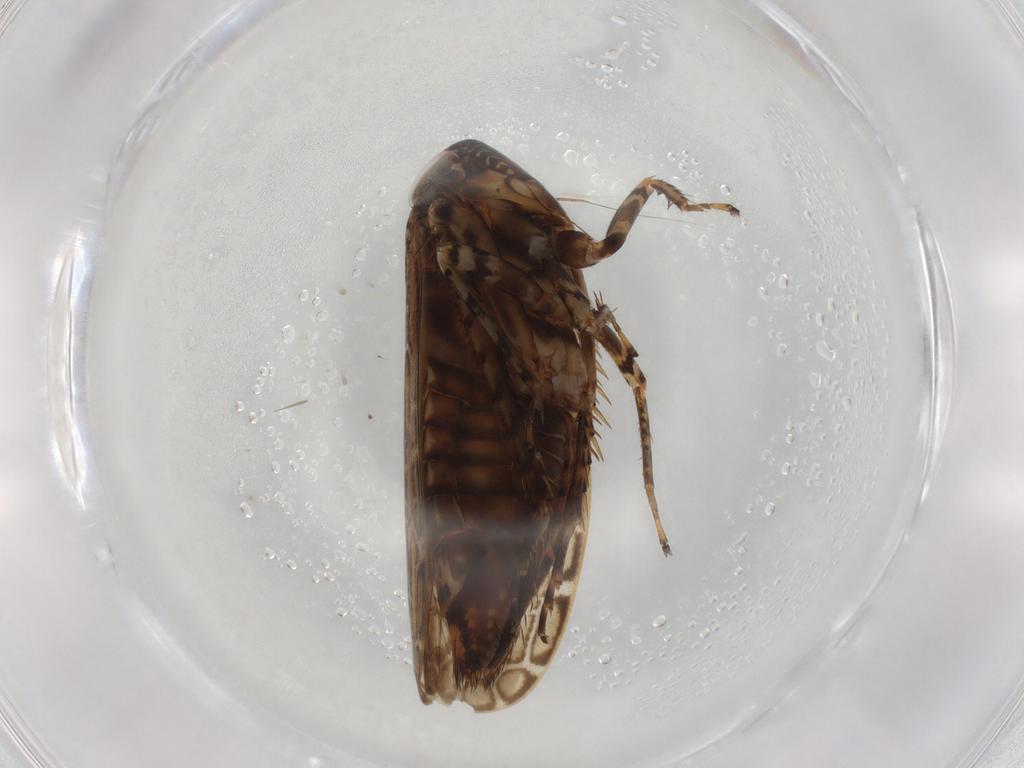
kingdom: Animalia
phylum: Arthropoda
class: Insecta
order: Hemiptera
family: Cicadellidae
